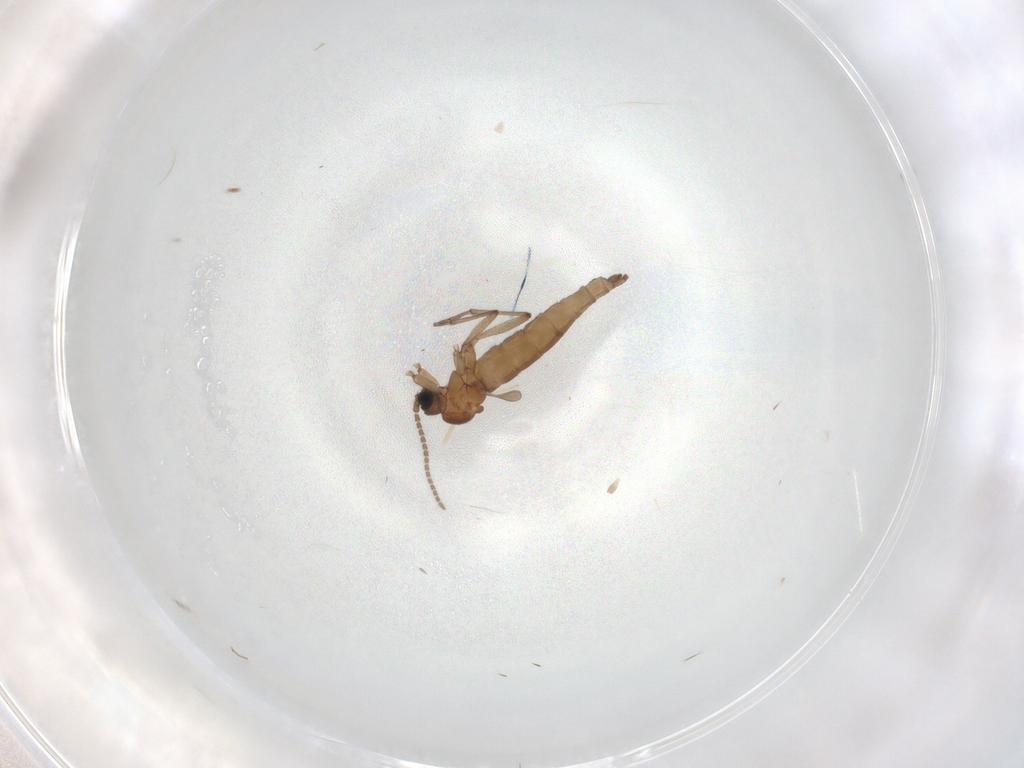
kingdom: Animalia
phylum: Arthropoda
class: Insecta
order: Diptera
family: Sciaridae
